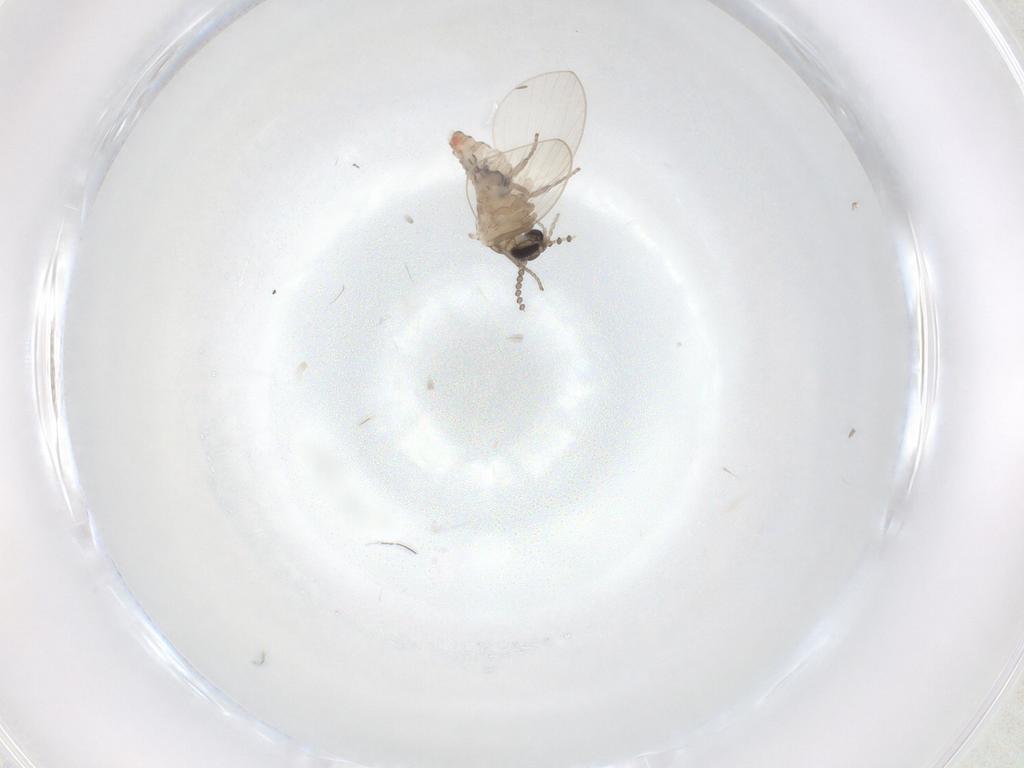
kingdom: Animalia
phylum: Arthropoda
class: Insecta
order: Diptera
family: Psychodidae
